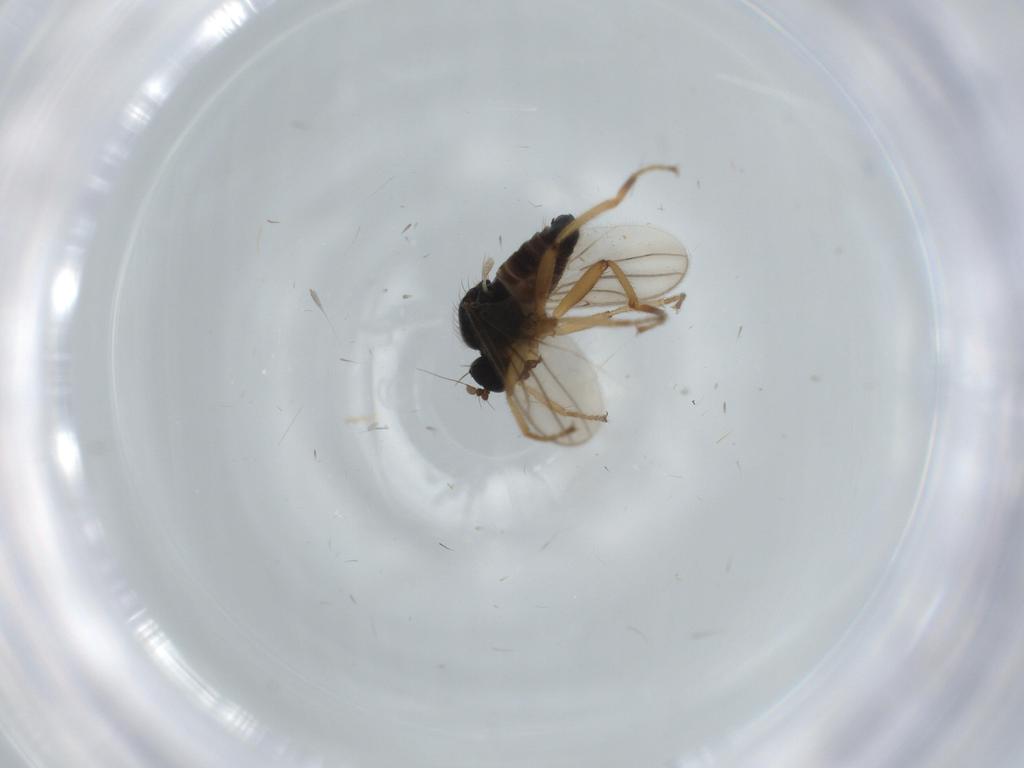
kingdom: Animalia
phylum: Arthropoda
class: Insecta
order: Diptera
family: Hybotidae
